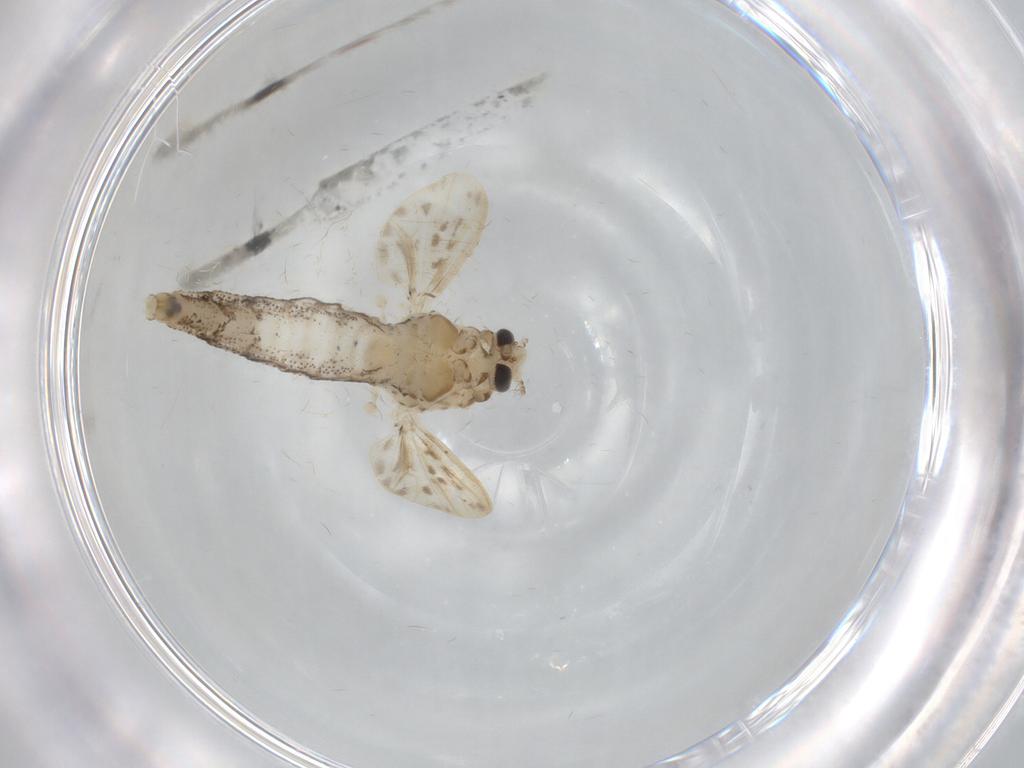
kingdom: Animalia
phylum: Arthropoda
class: Insecta
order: Diptera
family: Chaoboridae
